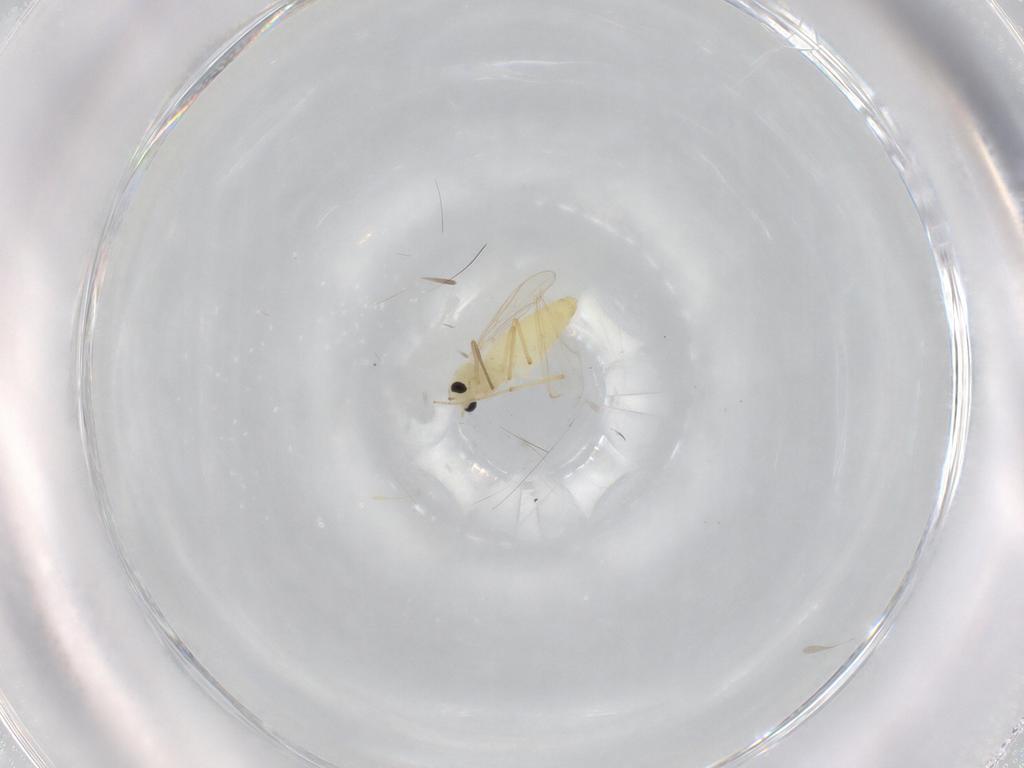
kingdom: Animalia
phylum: Arthropoda
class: Insecta
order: Diptera
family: Chironomidae
